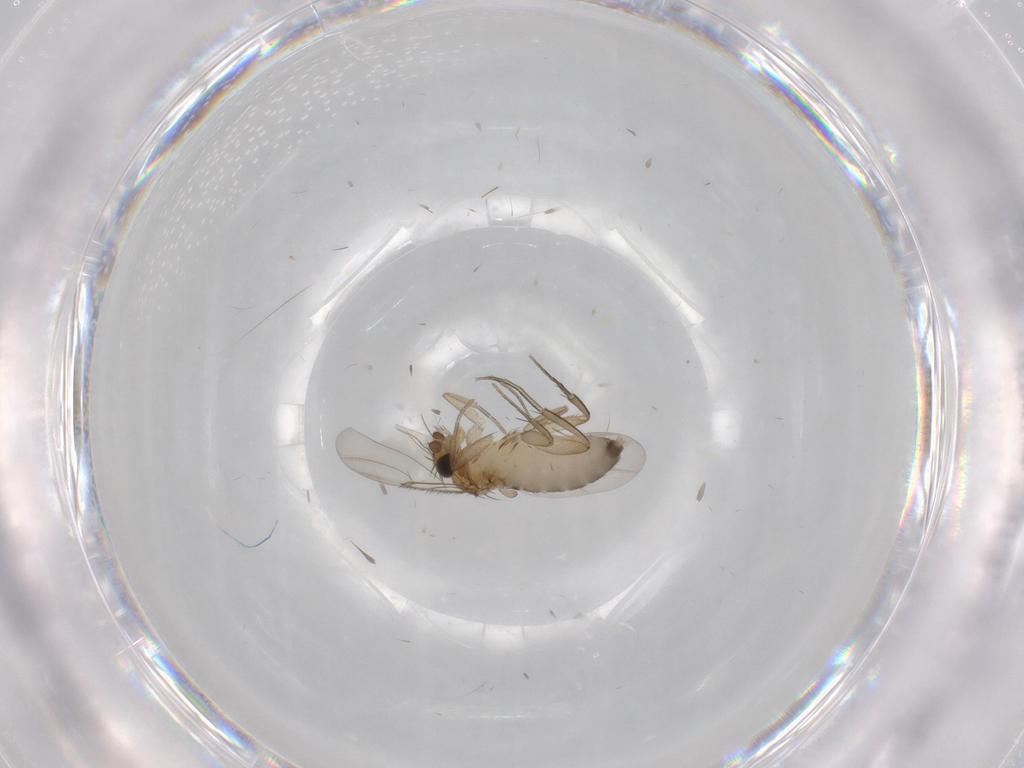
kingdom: Animalia
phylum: Arthropoda
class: Insecta
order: Diptera
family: Phoridae
